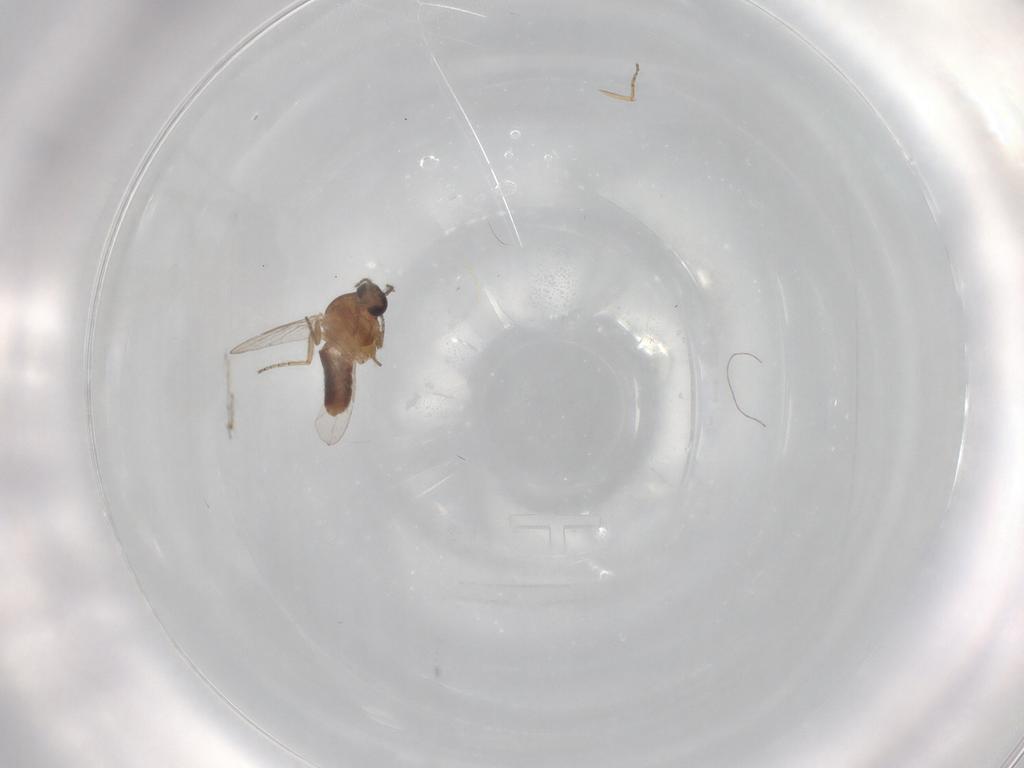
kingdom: Animalia
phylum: Arthropoda
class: Insecta
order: Diptera
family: Ceratopogonidae
